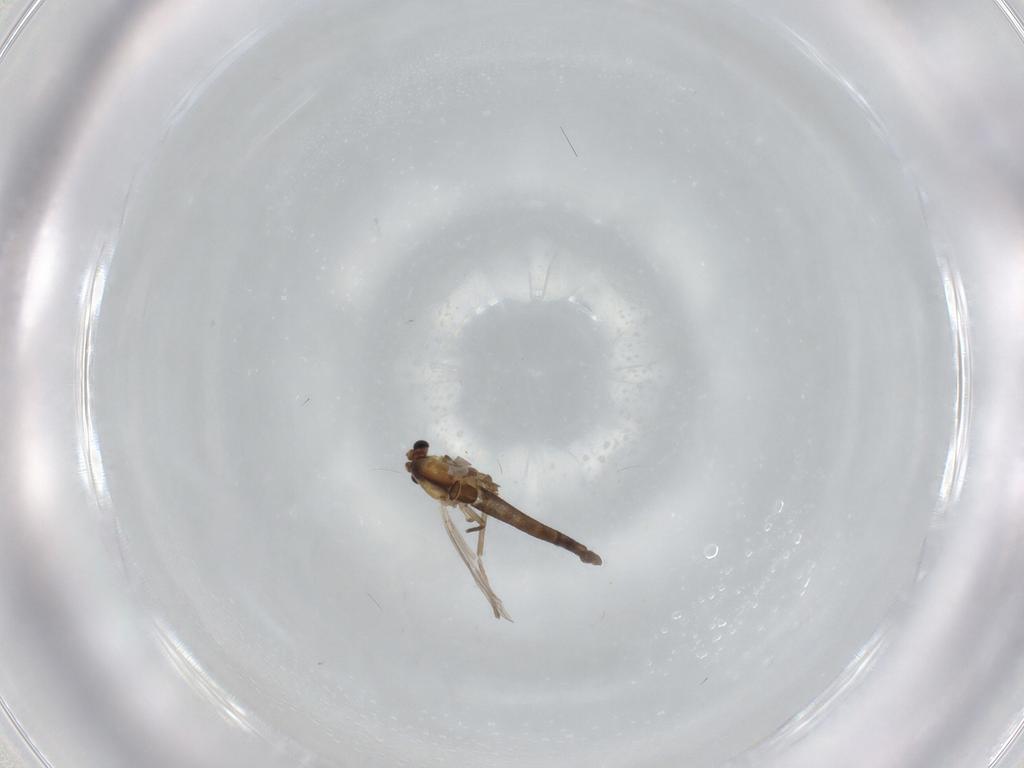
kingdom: Animalia
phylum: Arthropoda
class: Insecta
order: Diptera
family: Chironomidae
